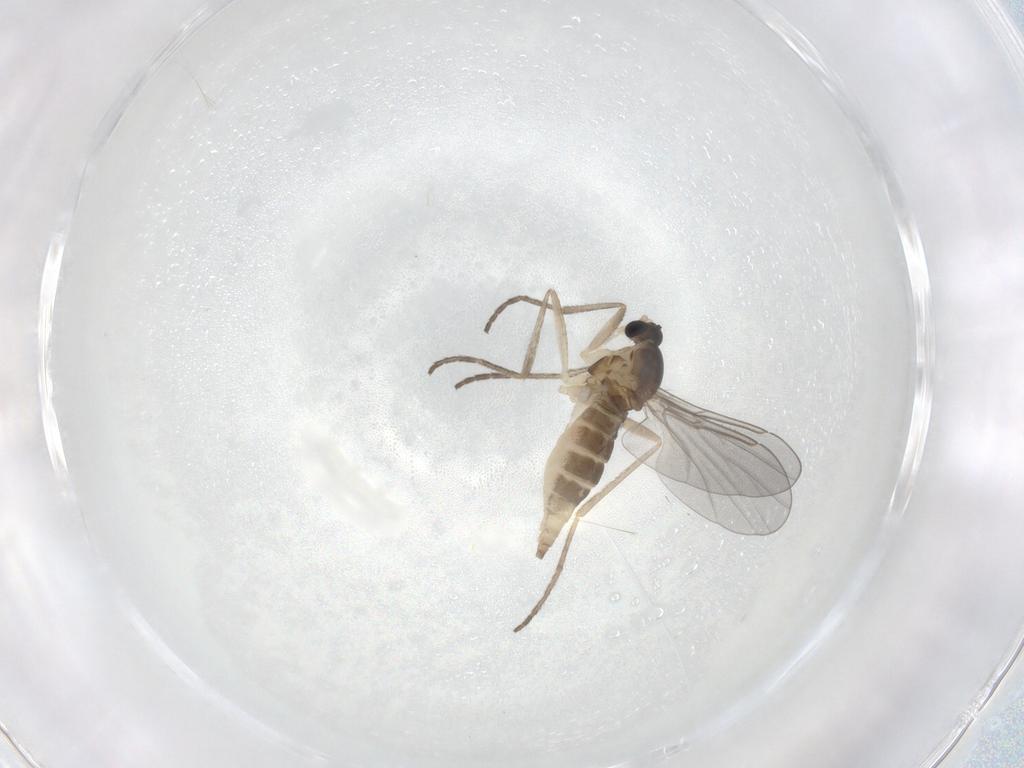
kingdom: Animalia
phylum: Arthropoda
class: Insecta
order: Diptera
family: Cecidomyiidae
